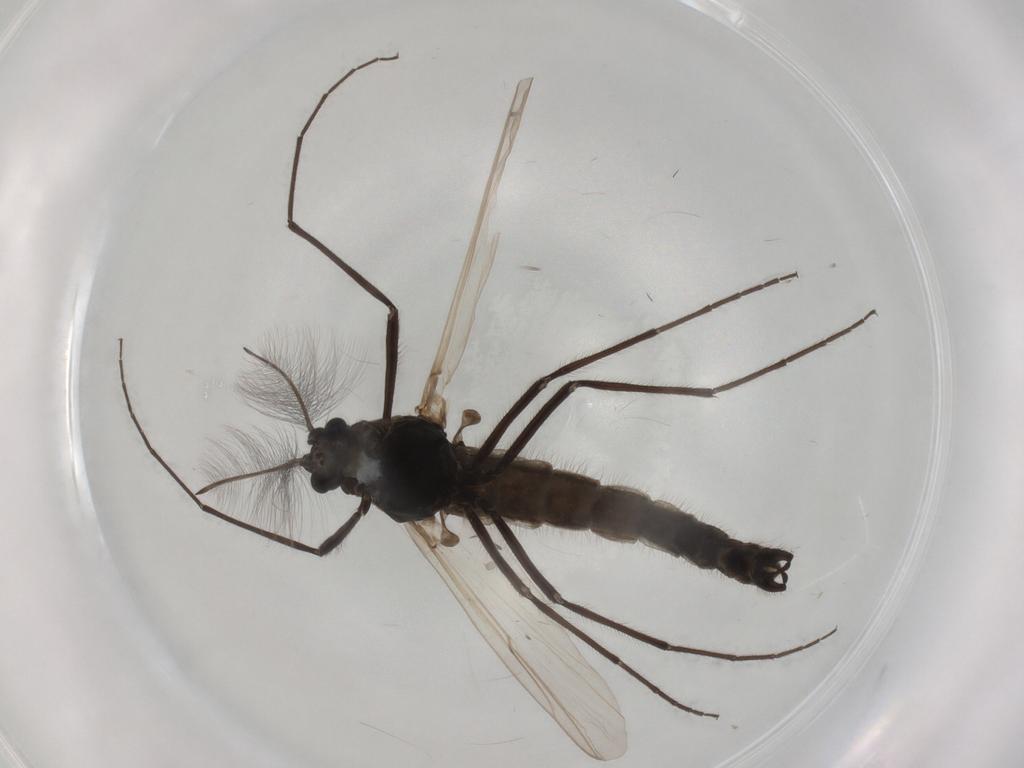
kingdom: Animalia
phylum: Arthropoda
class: Insecta
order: Diptera
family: Chironomidae
